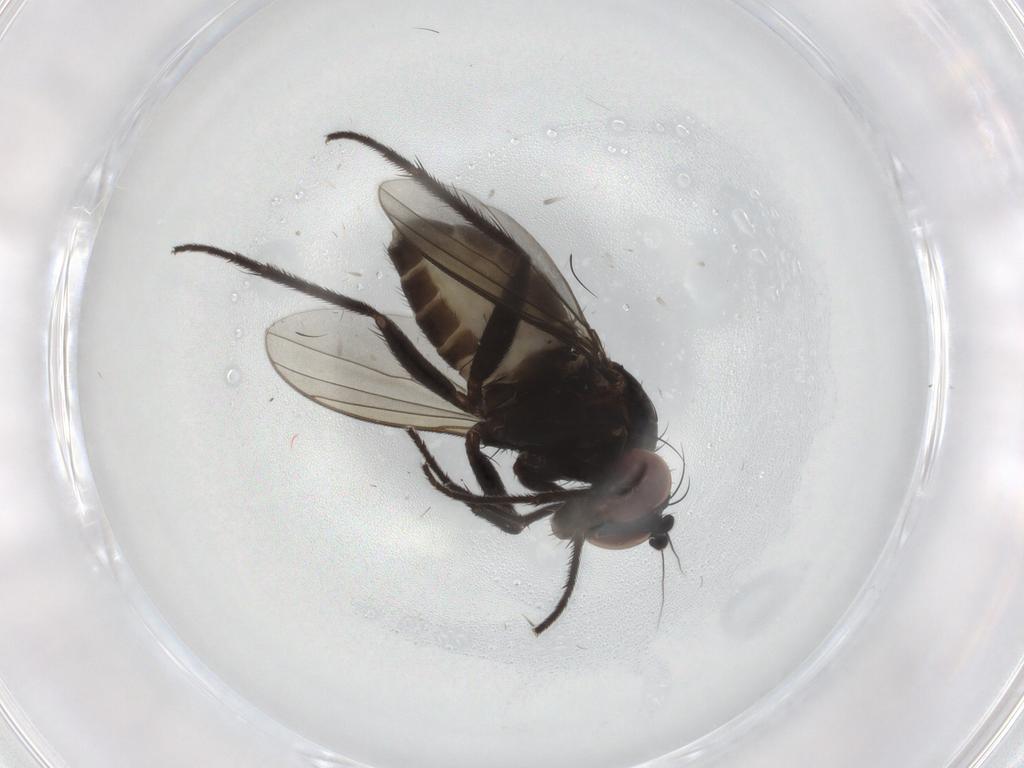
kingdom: Animalia
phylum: Arthropoda
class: Insecta
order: Diptera
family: Dolichopodidae
